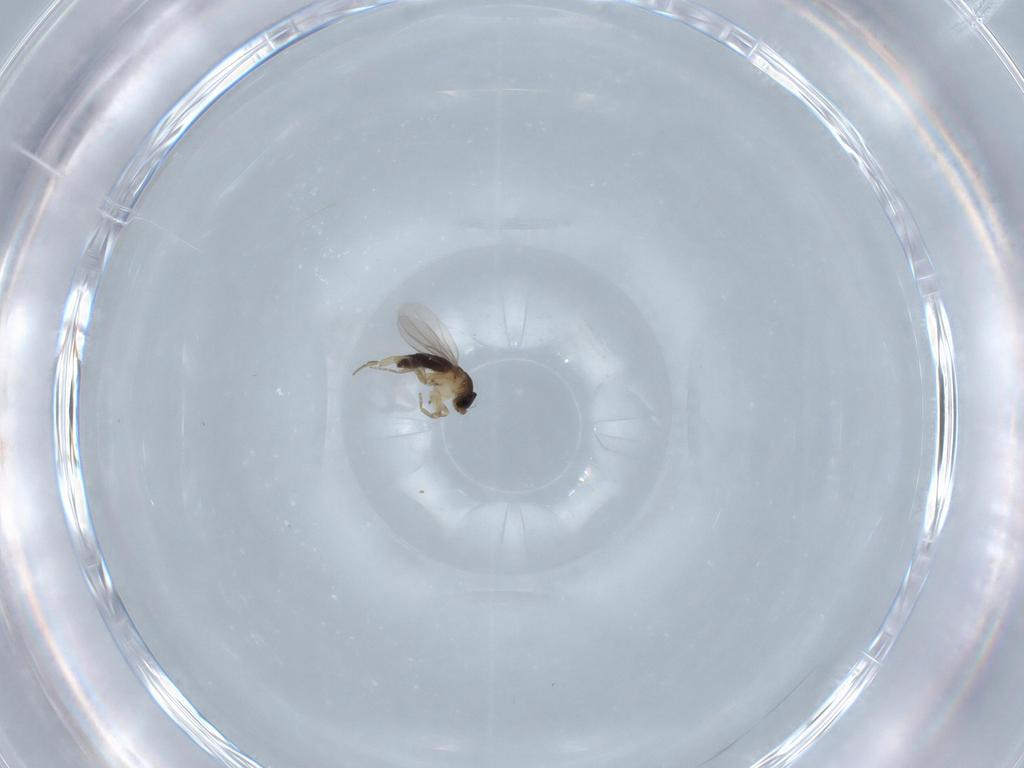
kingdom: Animalia
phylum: Arthropoda
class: Insecta
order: Diptera
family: Phoridae
